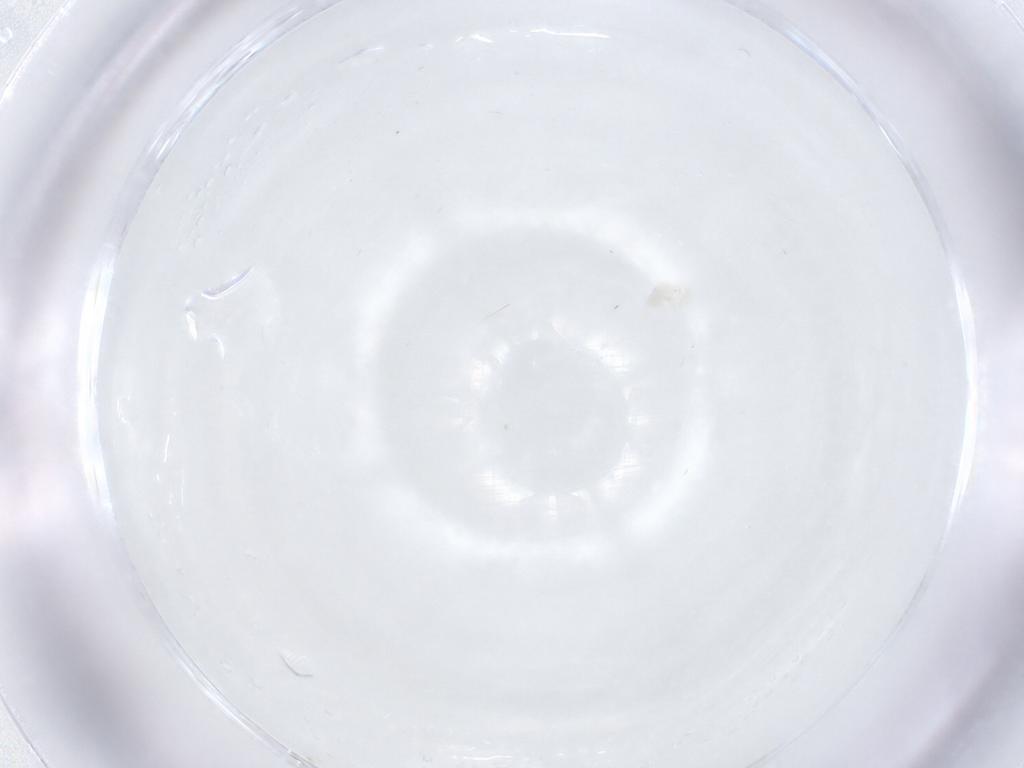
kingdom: Animalia
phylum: Arthropoda
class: Arachnida
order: Trombidiformes
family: Anystidae
